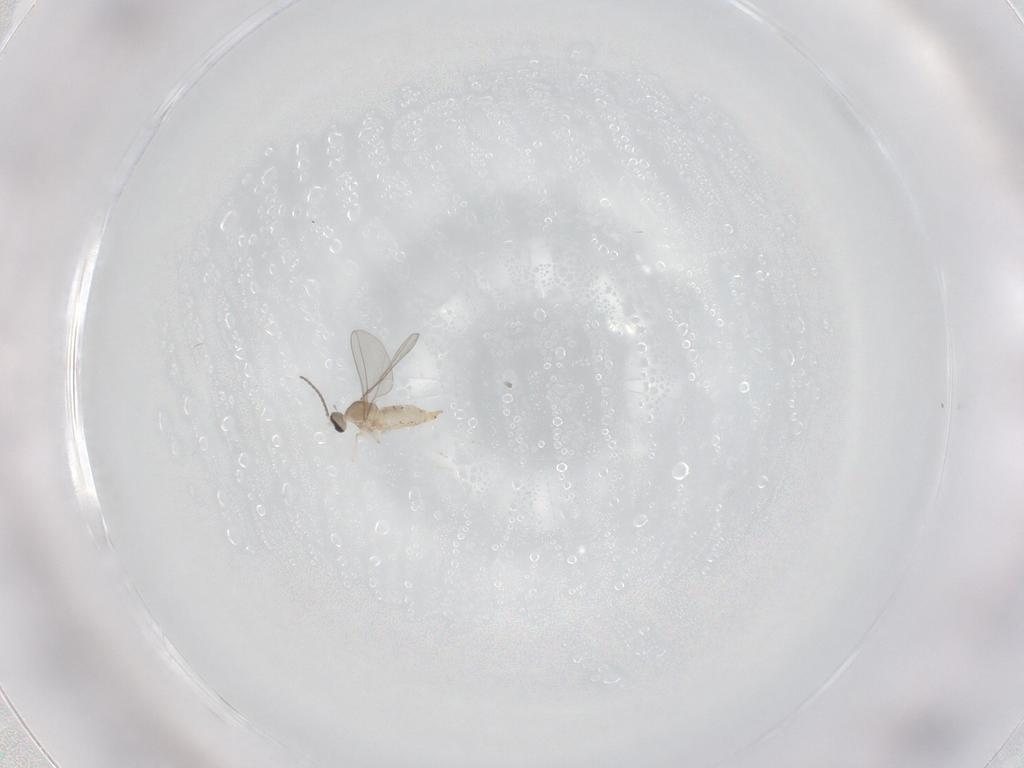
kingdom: Animalia
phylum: Arthropoda
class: Insecta
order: Diptera
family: Cecidomyiidae
